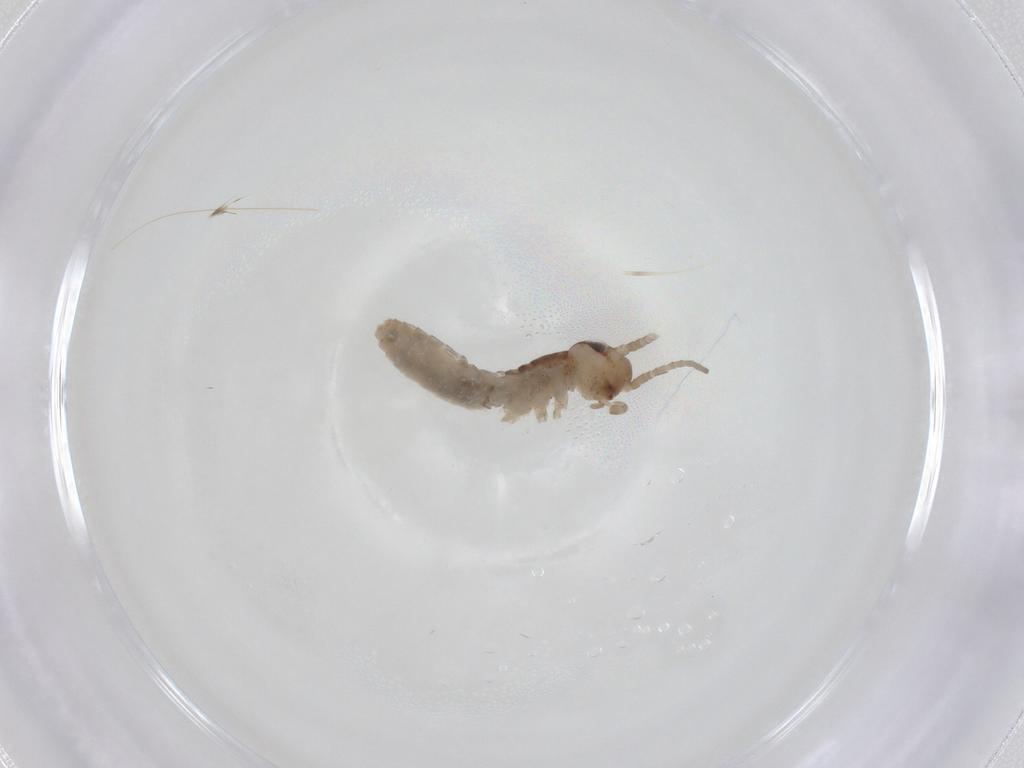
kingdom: Animalia
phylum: Arthropoda
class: Insecta
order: Orthoptera
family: Gryllidae
